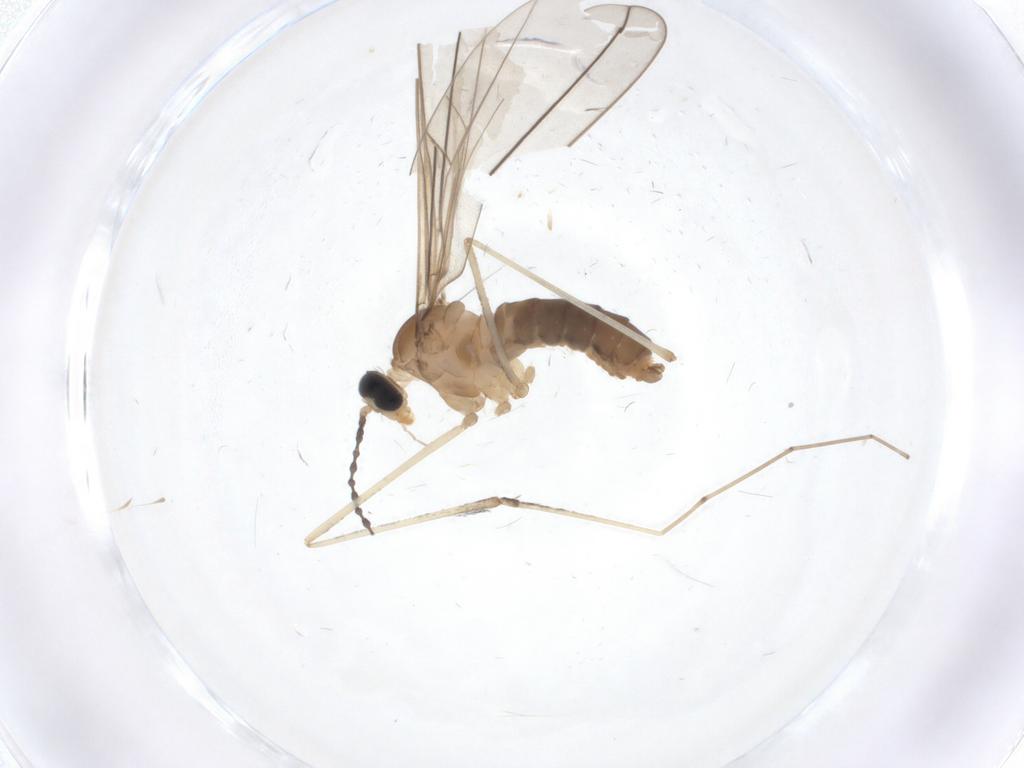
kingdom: Animalia
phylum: Arthropoda
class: Insecta
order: Diptera
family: Cecidomyiidae
